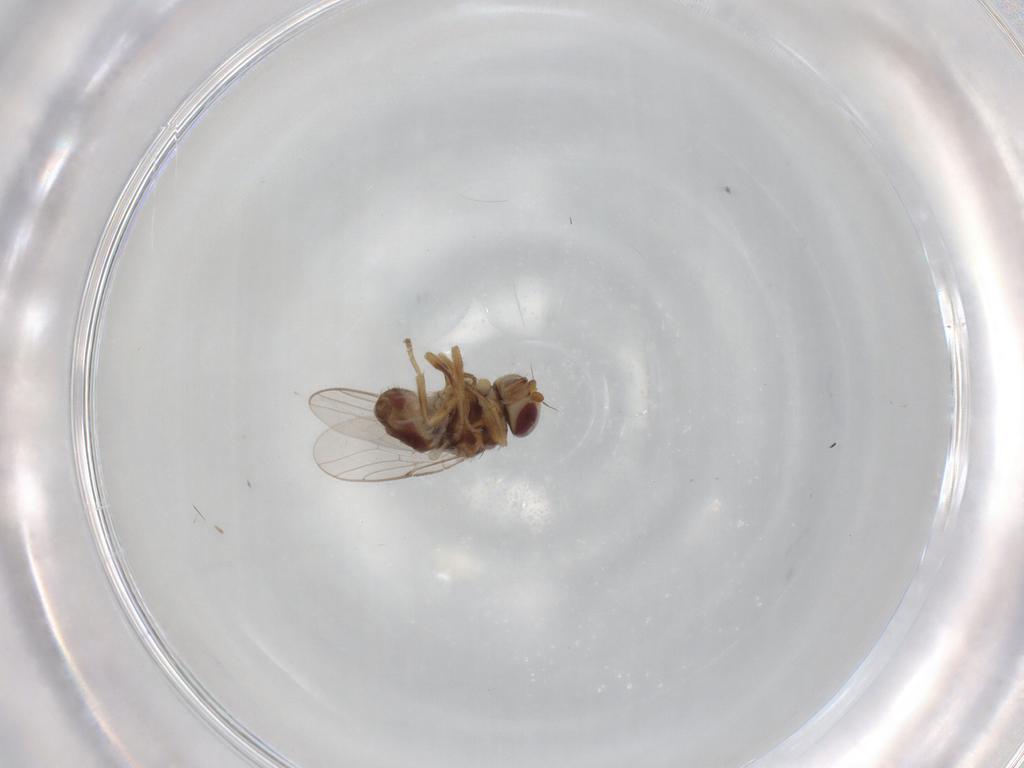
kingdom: Animalia
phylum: Arthropoda
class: Insecta
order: Diptera
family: Chloropidae
